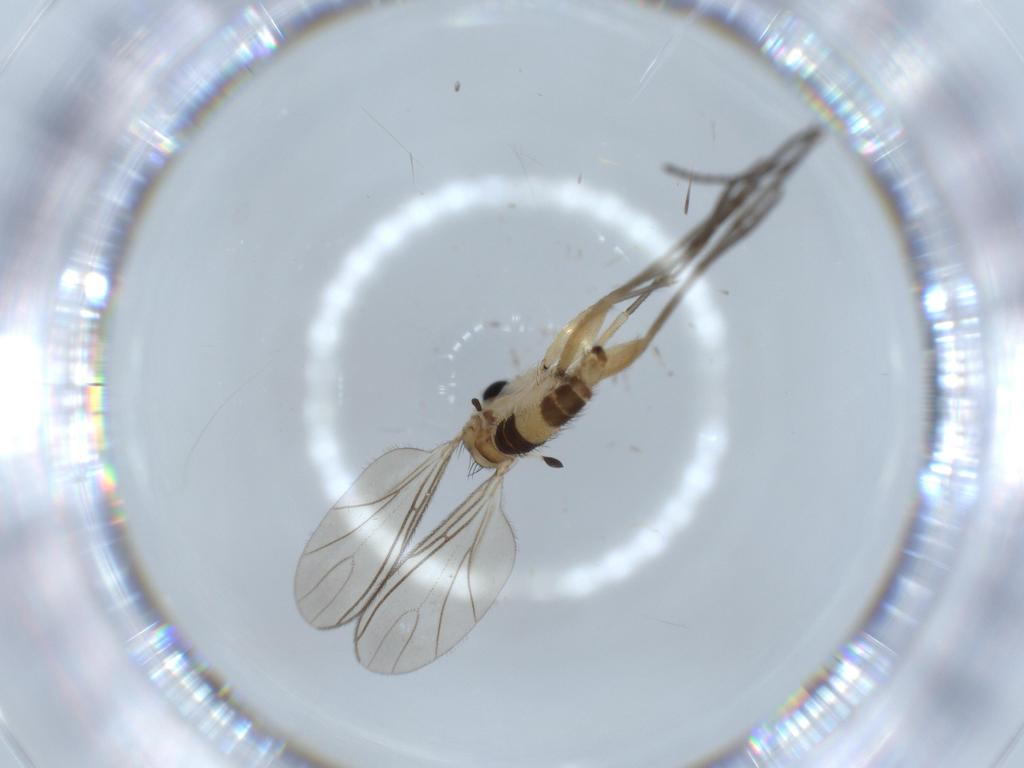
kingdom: Animalia
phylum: Arthropoda
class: Insecta
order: Diptera
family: Sciaridae
